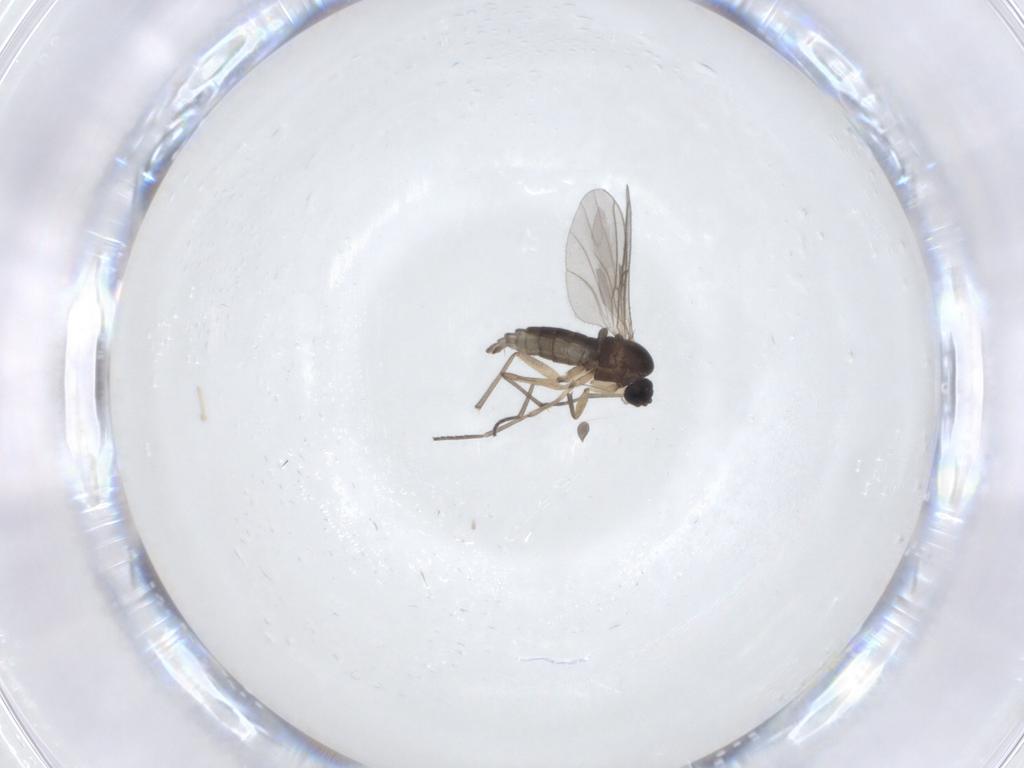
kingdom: Animalia
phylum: Arthropoda
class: Insecta
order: Diptera
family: Sciaridae
